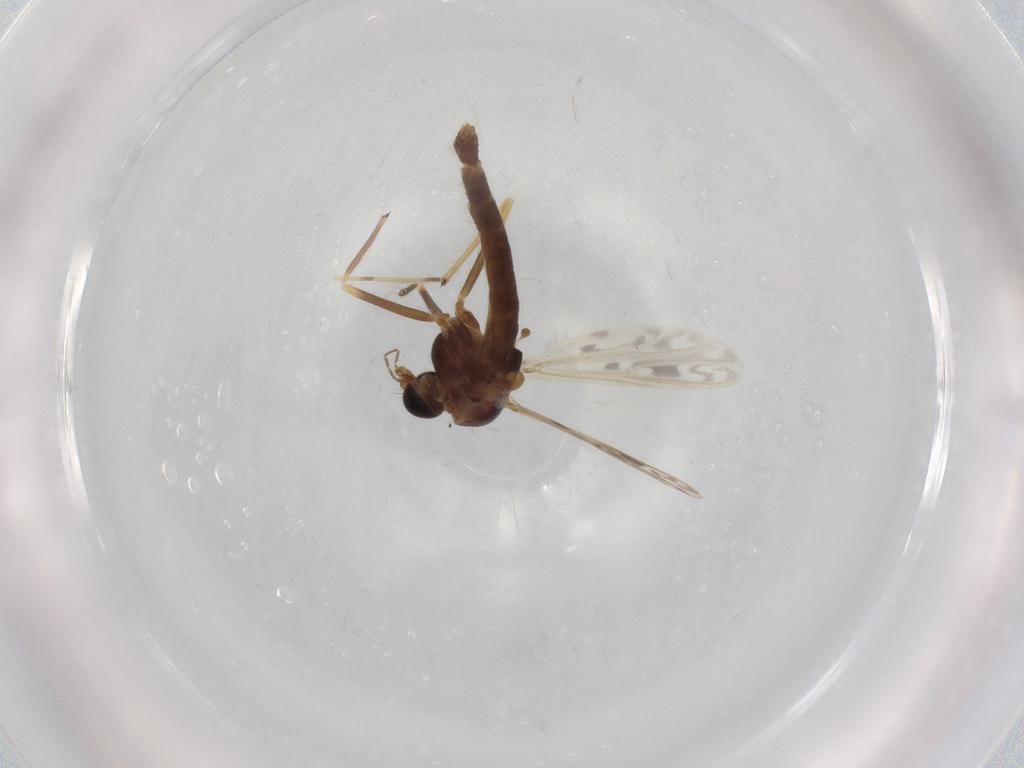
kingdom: Animalia
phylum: Arthropoda
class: Insecta
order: Diptera
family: Chironomidae
